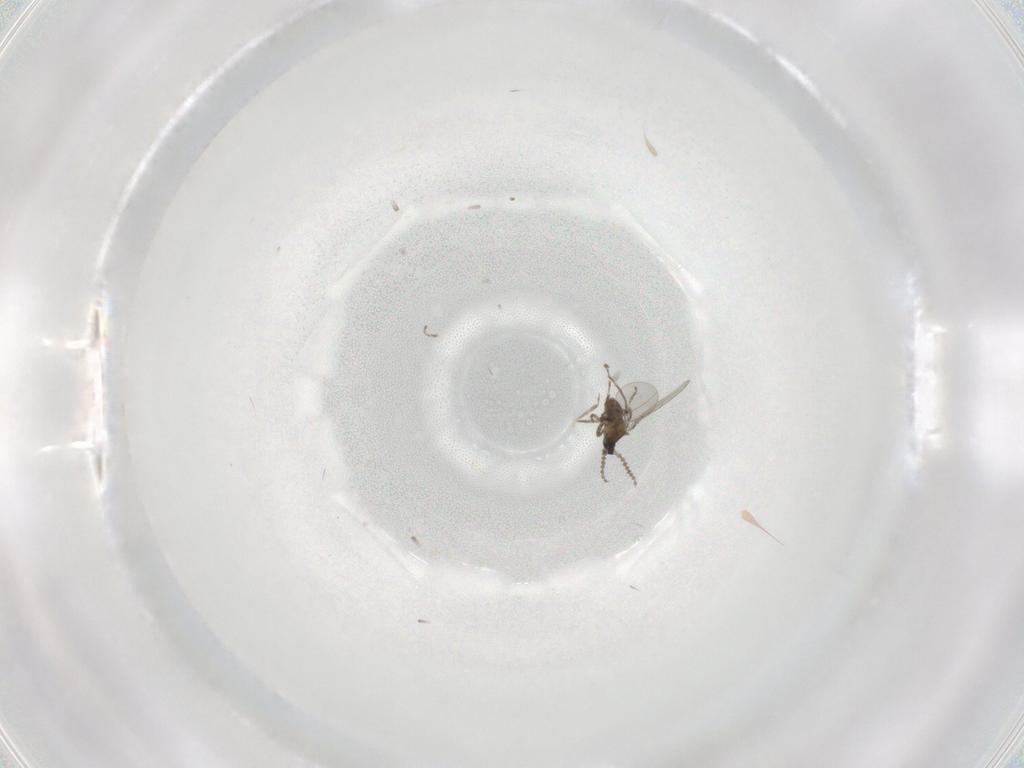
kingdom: Animalia
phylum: Arthropoda
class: Insecta
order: Diptera
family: Cecidomyiidae
